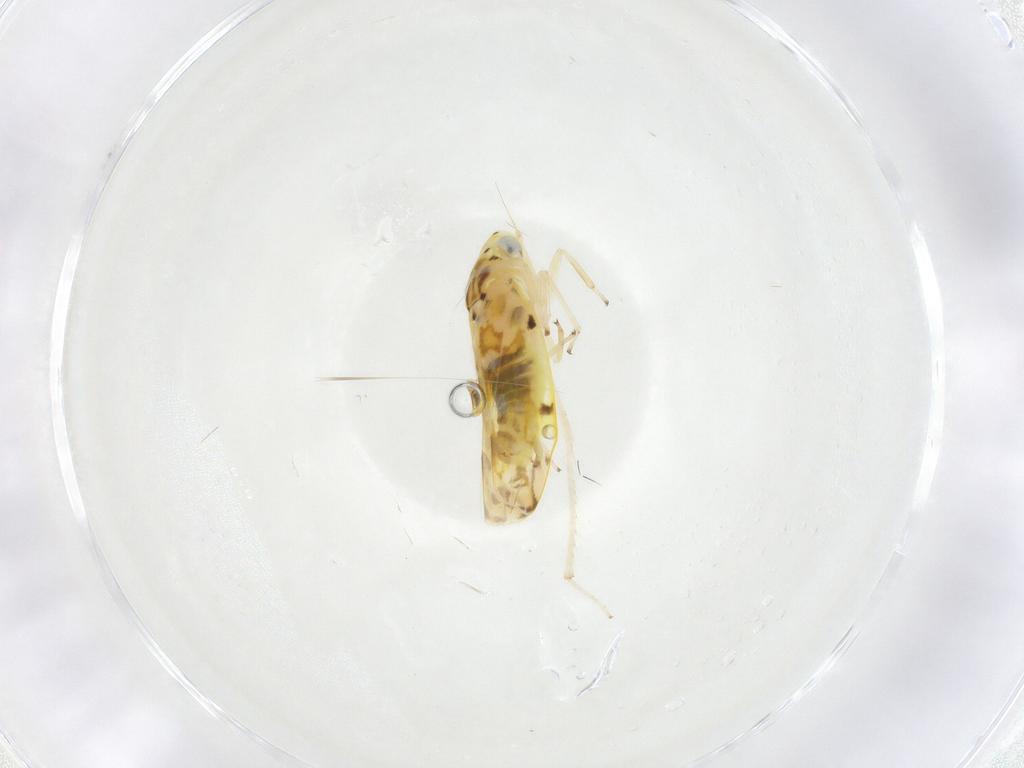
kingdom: Animalia
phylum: Arthropoda
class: Insecta
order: Hemiptera
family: Cicadellidae
